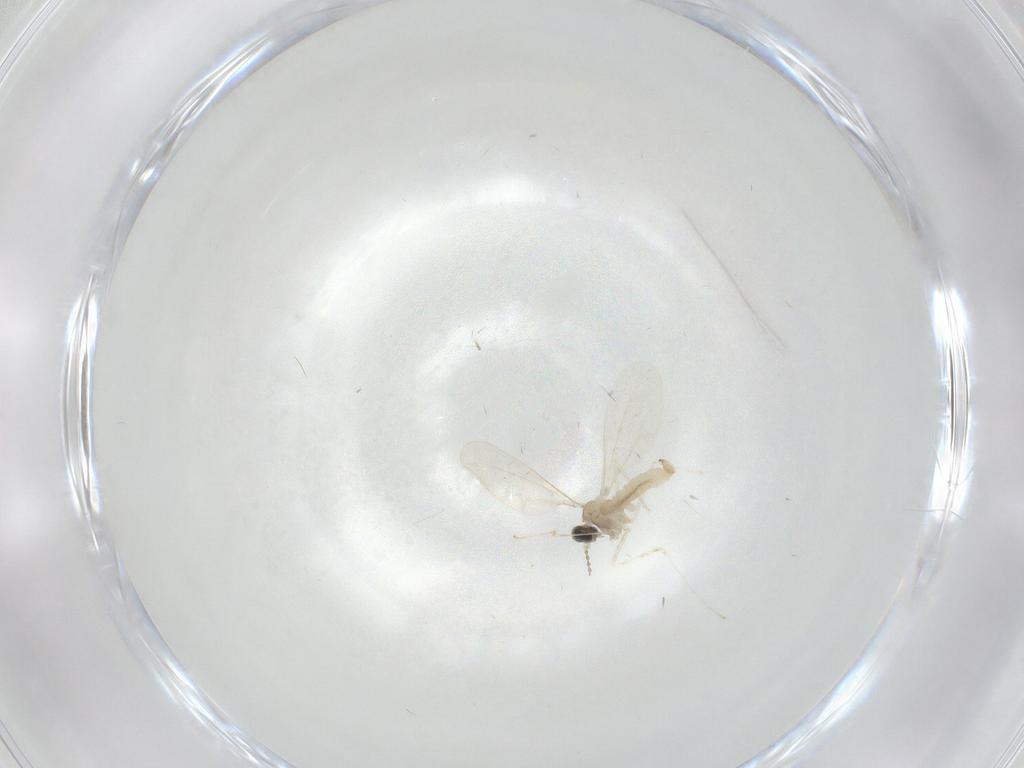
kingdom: Animalia
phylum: Arthropoda
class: Insecta
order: Diptera
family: Cecidomyiidae
